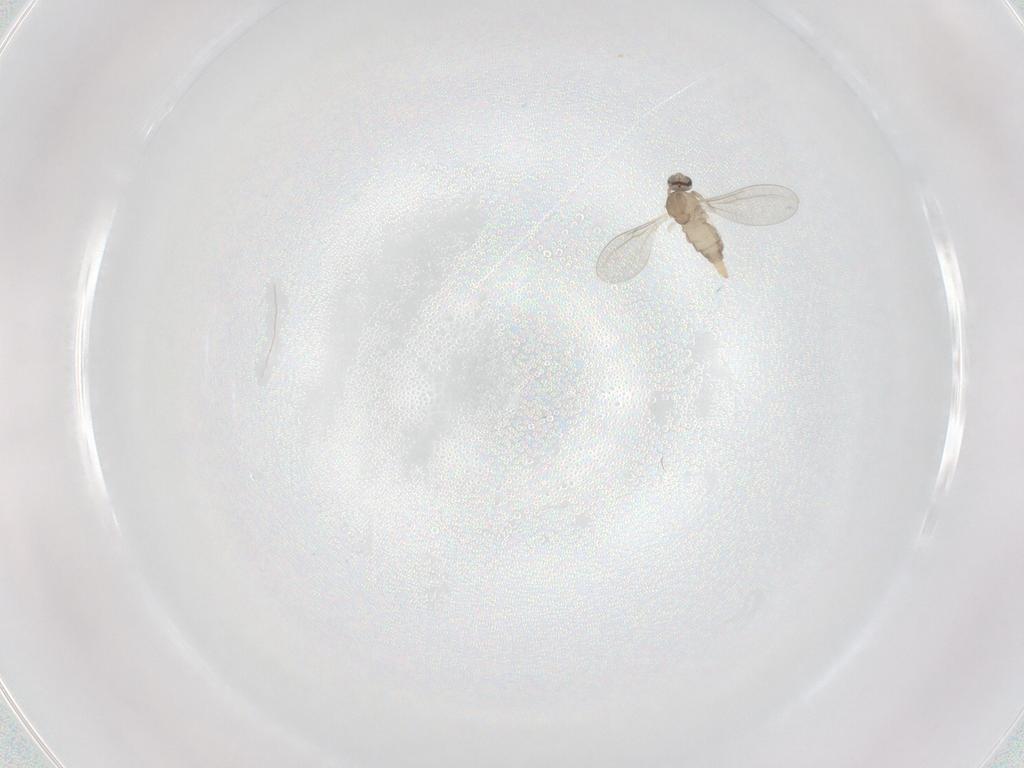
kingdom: Animalia
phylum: Arthropoda
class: Insecta
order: Diptera
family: Cecidomyiidae
